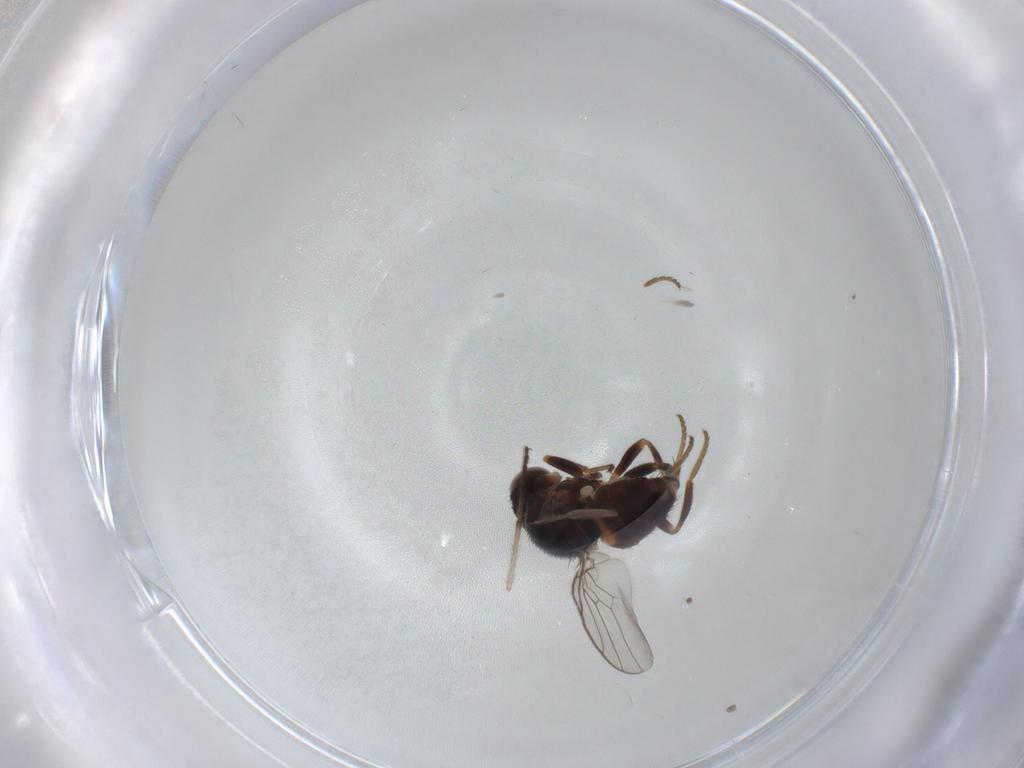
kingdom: Animalia
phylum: Arthropoda
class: Insecta
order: Diptera
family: Chloropidae
